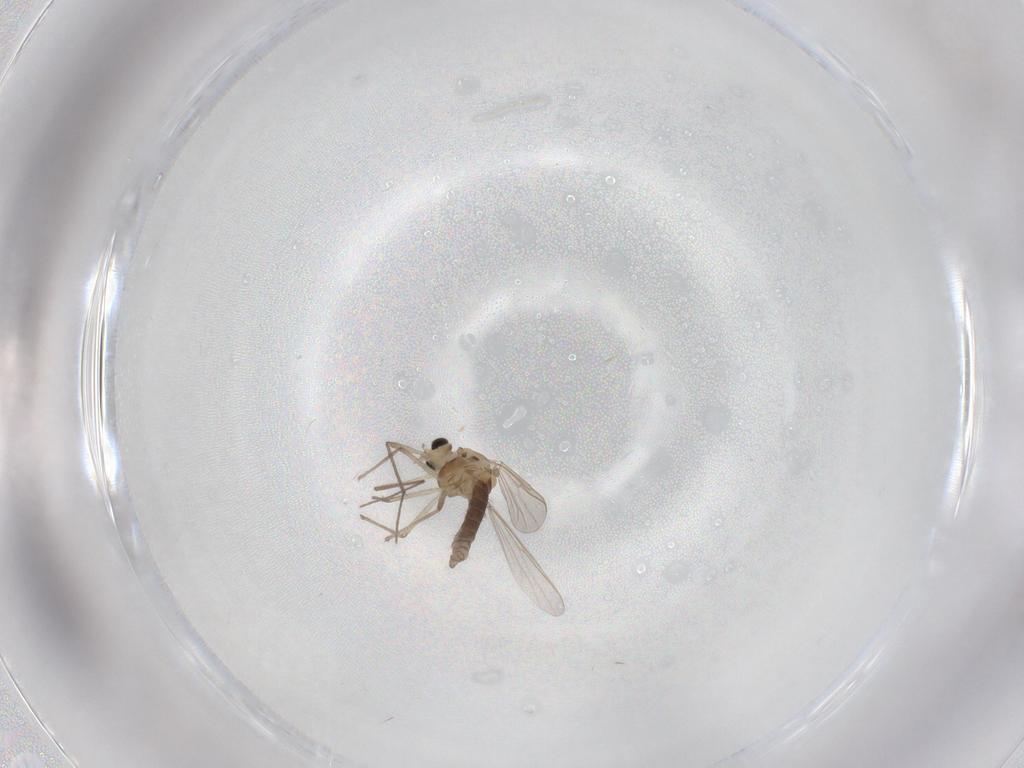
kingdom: Animalia
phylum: Arthropoda
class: Insecta
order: Diptera
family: Chironomidae
